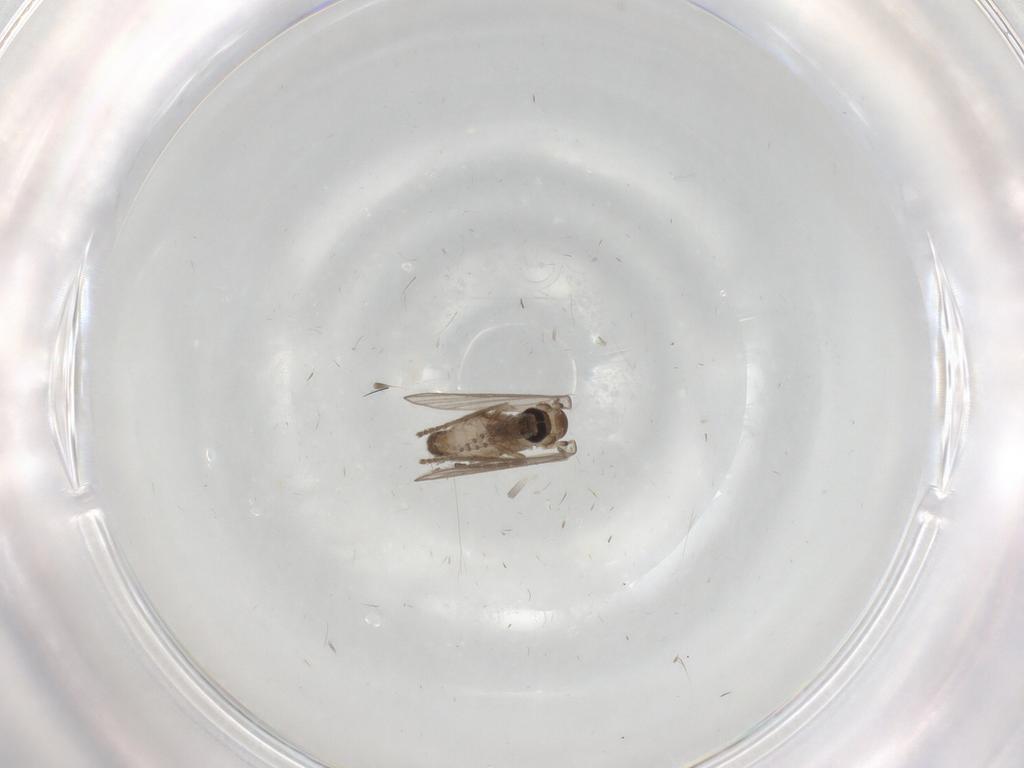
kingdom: Animalia
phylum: Arthropoda
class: Insecta
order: Diptera
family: Psychodidae
